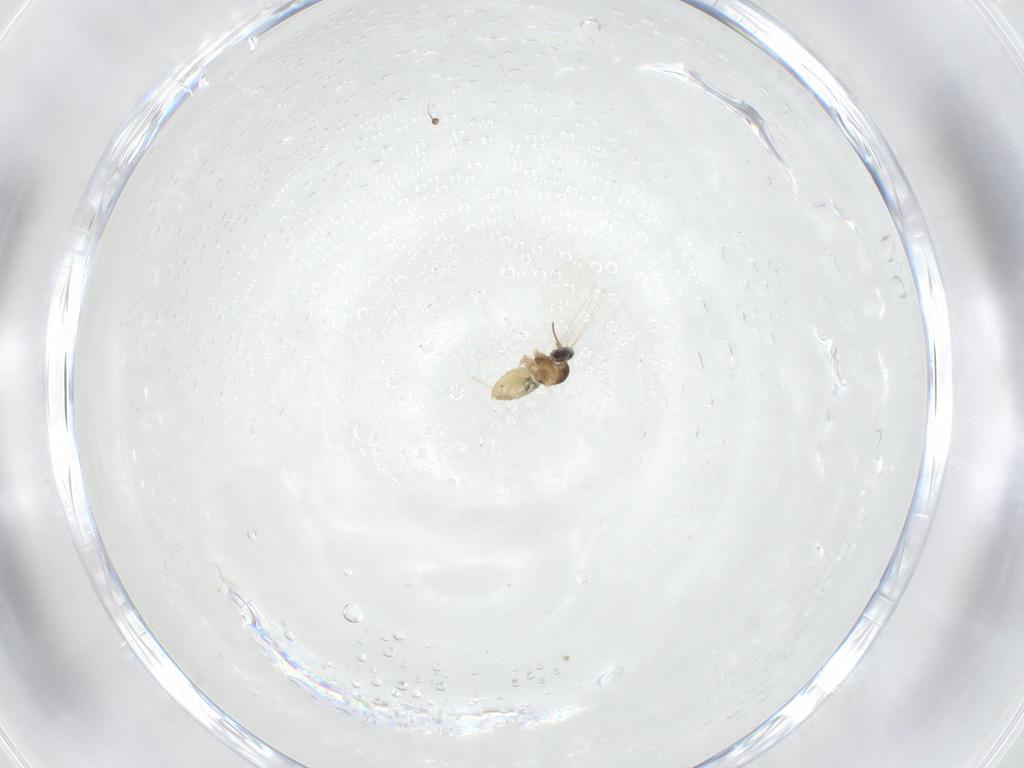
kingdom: Animalia
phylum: Arthropoda
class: Insecta
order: Diptera
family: Cecidomyiidae
